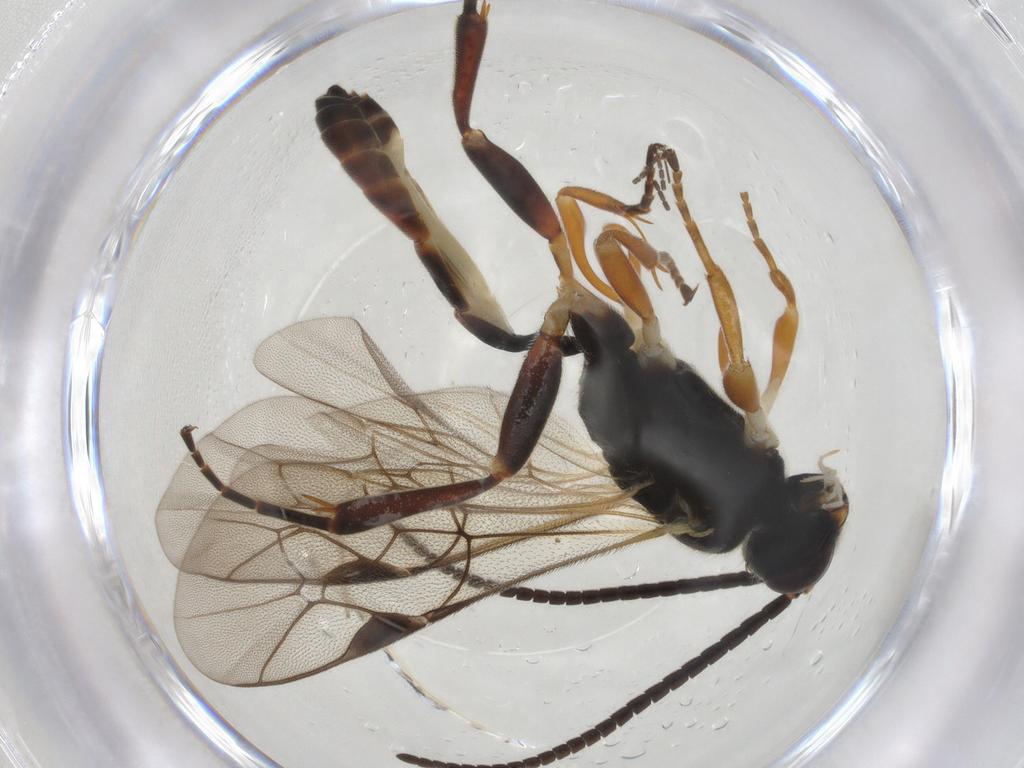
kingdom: Animalia
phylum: Arthropoda
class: Insecta
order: Hymenoptera
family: Ichneumonidae
